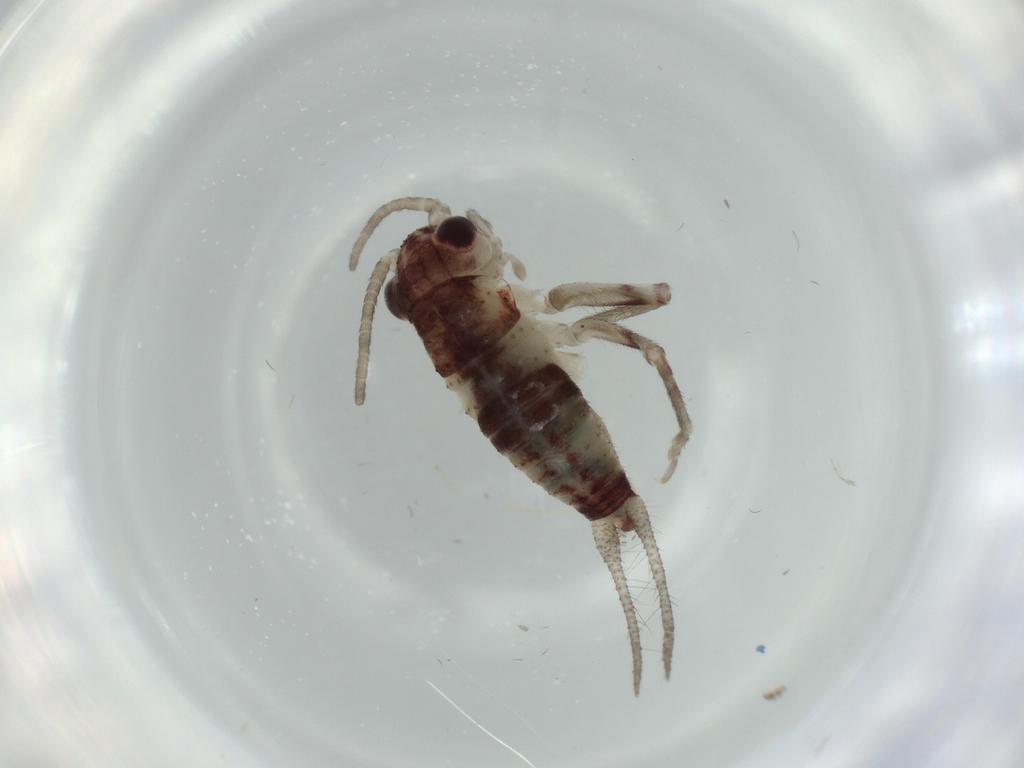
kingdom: Animalia
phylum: Arthropoda
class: Insecta
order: Orthoptera
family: Trigonidiidae
